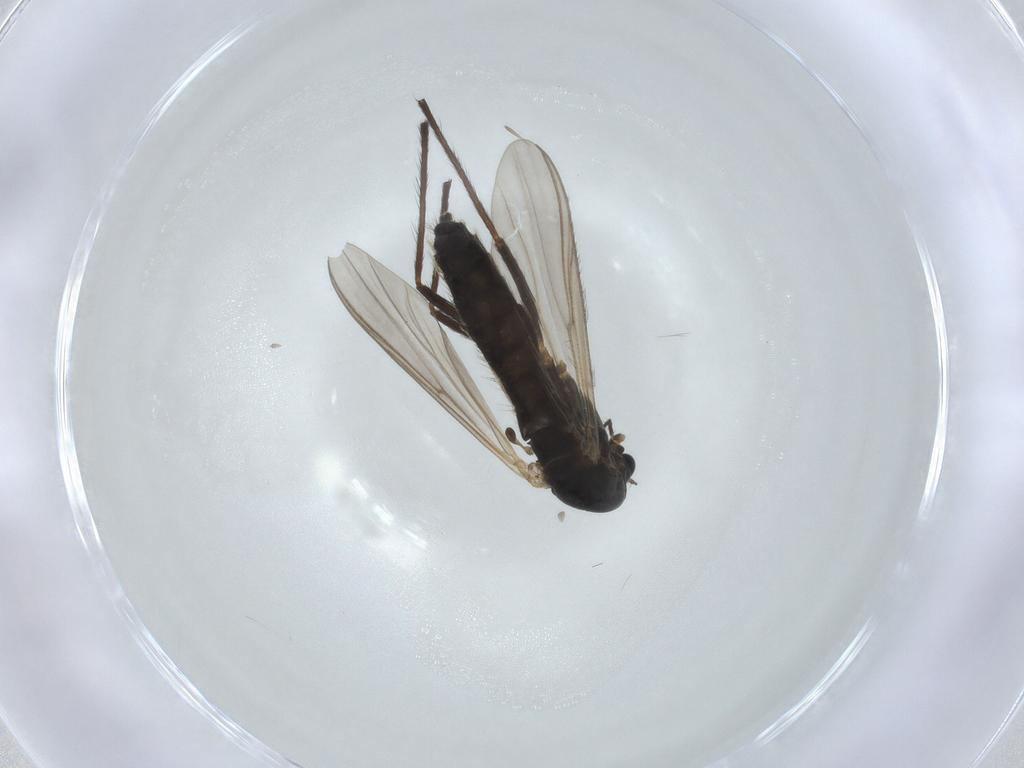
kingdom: Animalia
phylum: Arthropoda
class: Insecta
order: Diptera
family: Chironomidae
